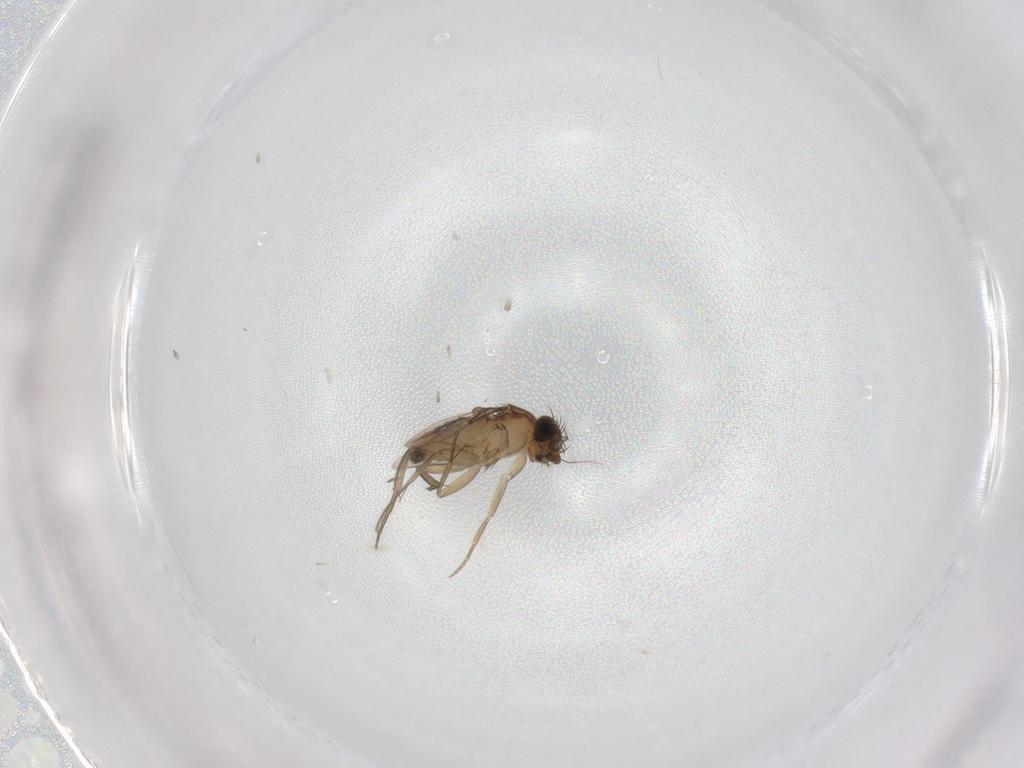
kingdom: Animalia
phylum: Arthropoda
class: Insecta
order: Diptera
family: Phoridae
